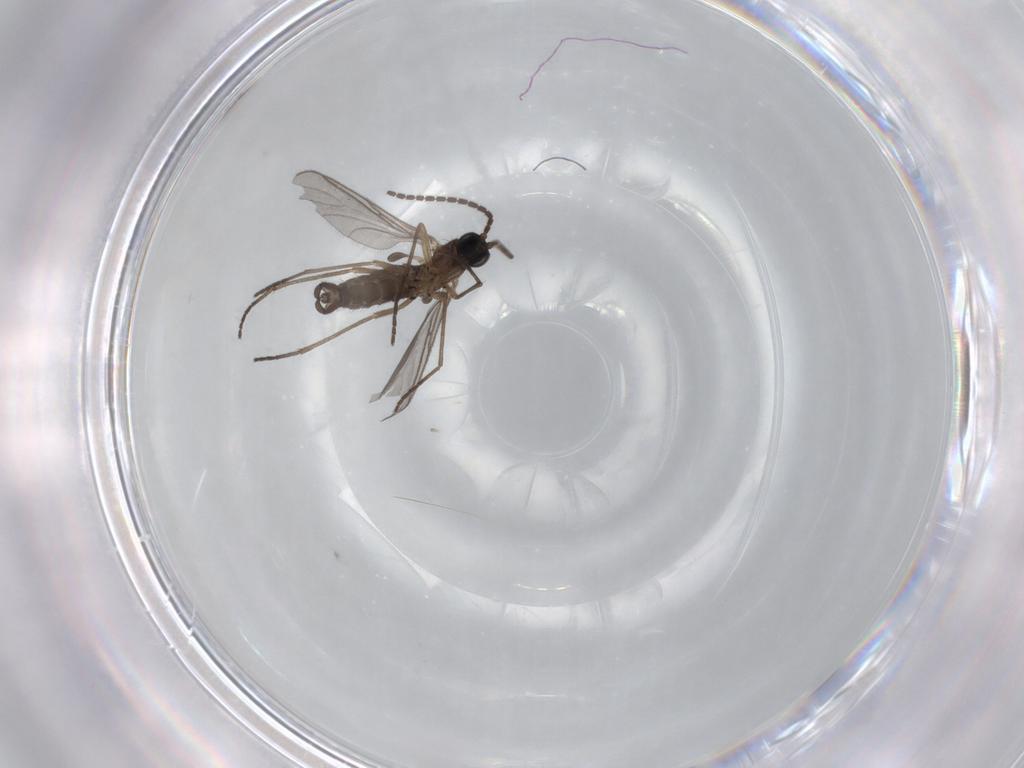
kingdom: Animalia
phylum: Arthropoda
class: Insecta
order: Diptera
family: Sciaridae
